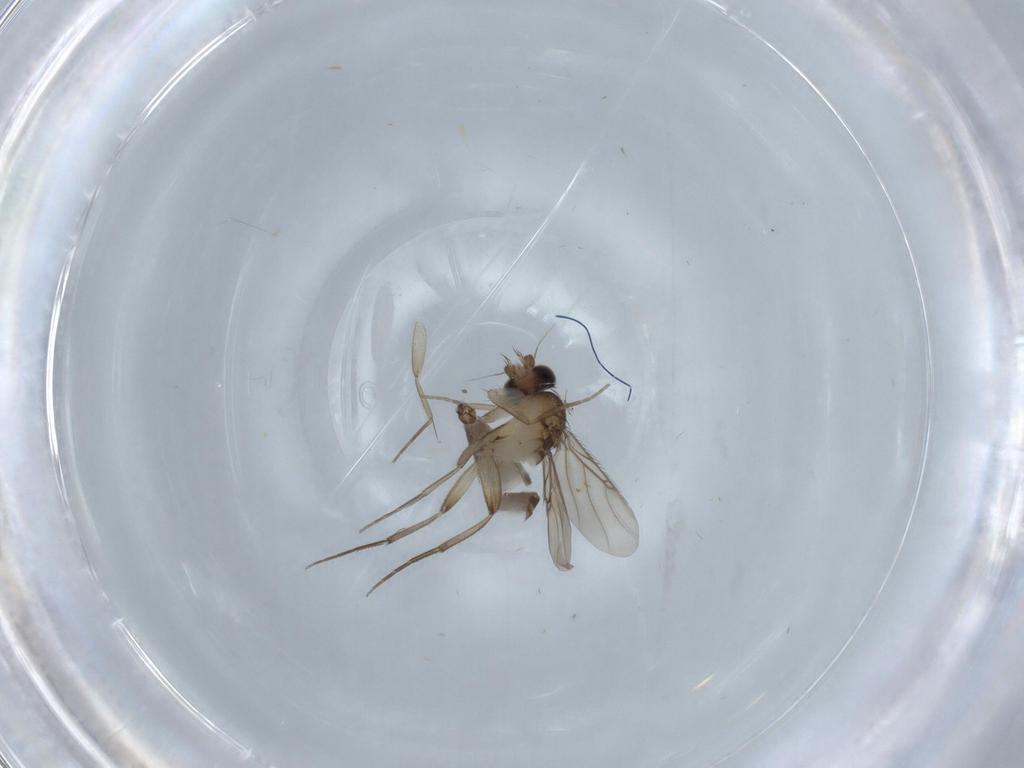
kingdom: Animalia
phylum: Arthropoda
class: Insecta
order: Diptera
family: Phoridae
